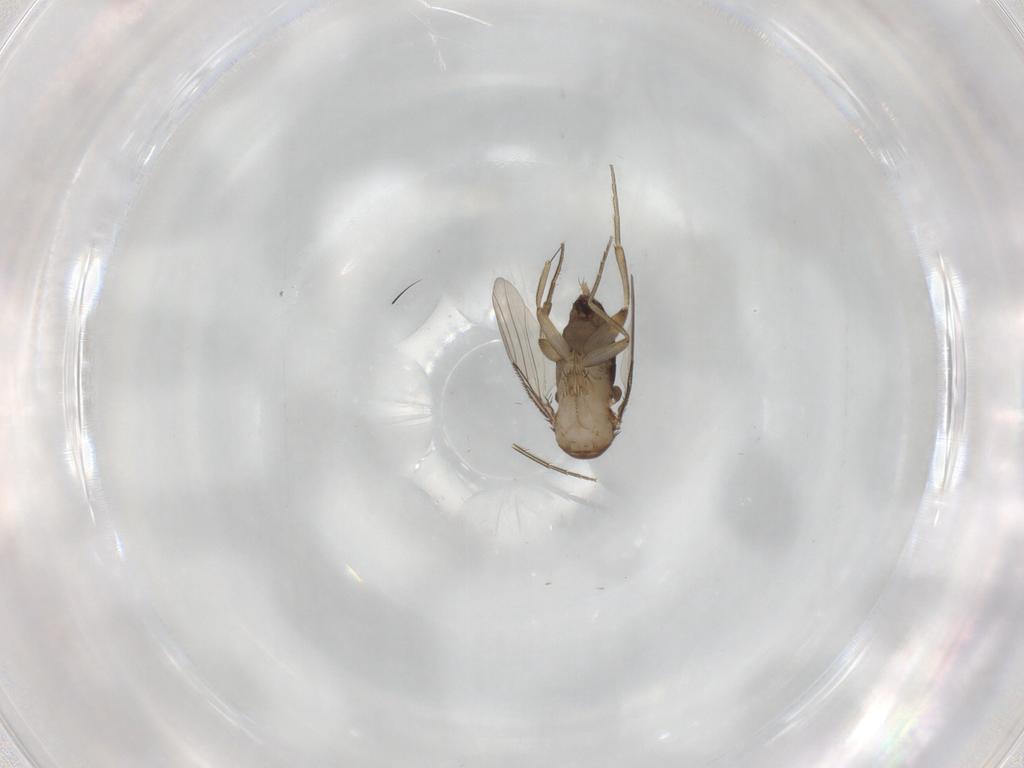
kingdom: Animalia
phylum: Arthropoda
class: Insecta
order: Diptera
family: Phoridae
